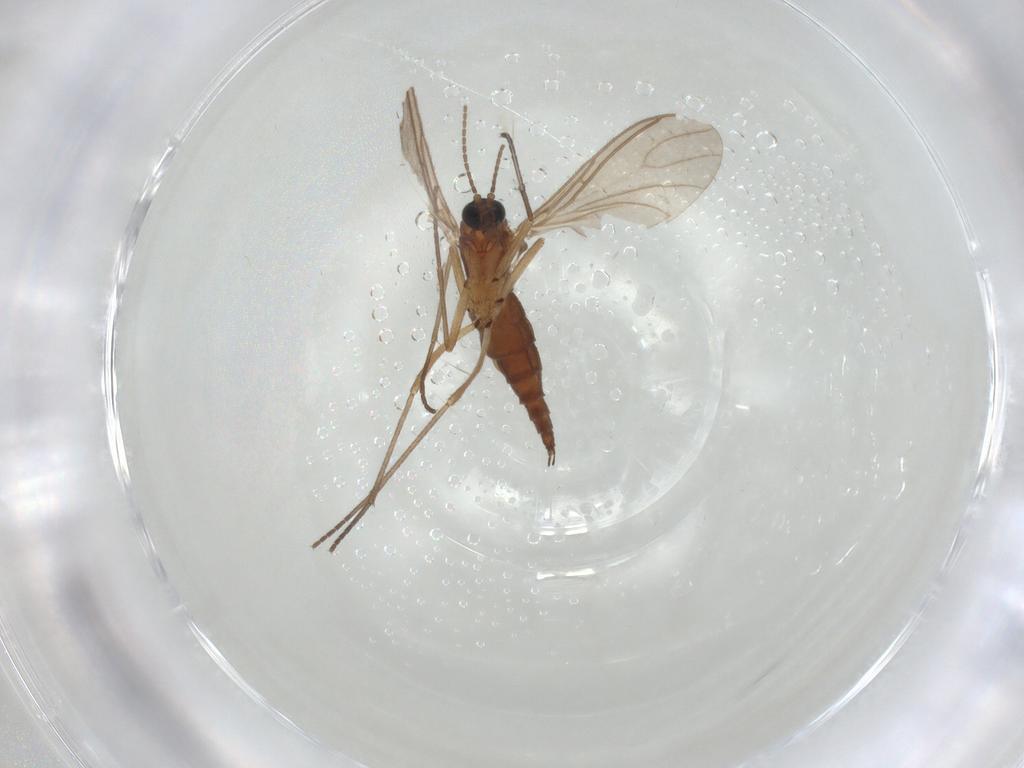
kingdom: Animalia
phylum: Arthropoda
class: Insecta
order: Diptera
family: Sciaridae
